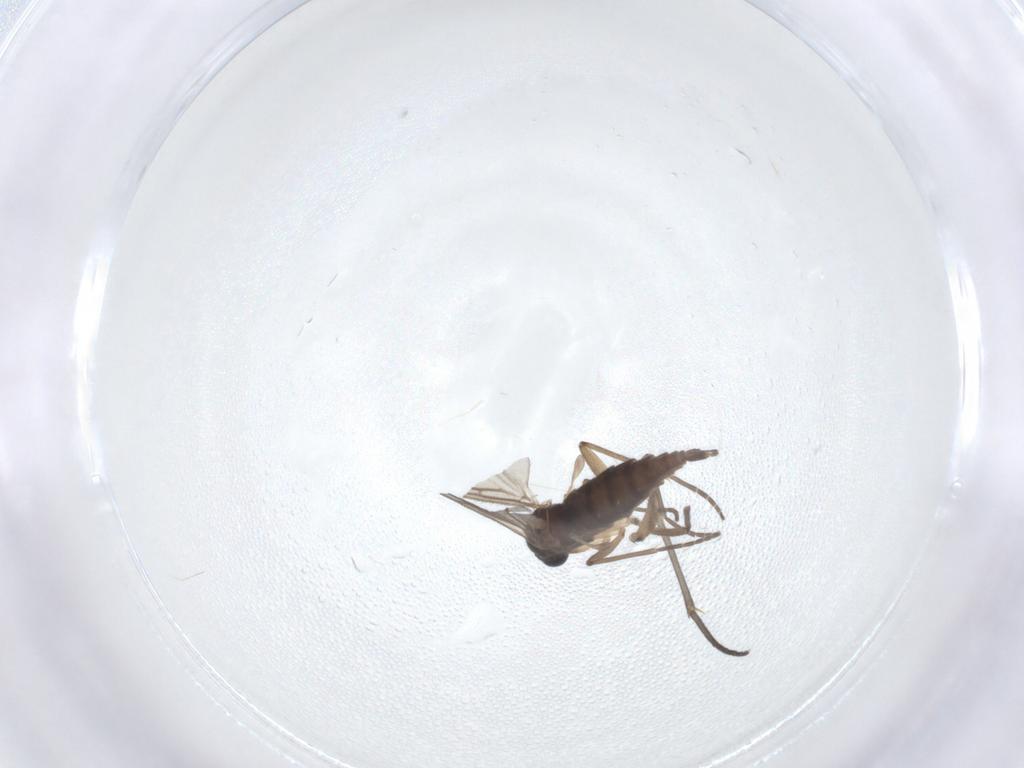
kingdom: Animalia
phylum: Arthropoda
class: Insecta
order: Diptera
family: Sciaridae
